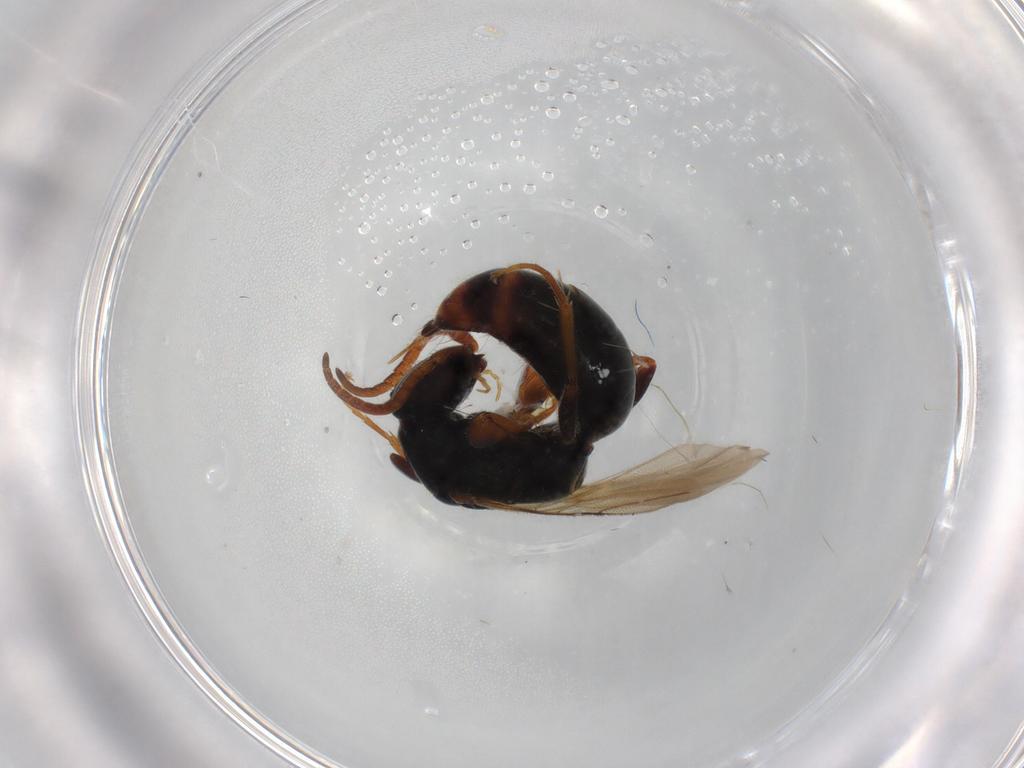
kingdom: Animalia
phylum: Arthropoda
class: Insecta
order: Hymenoptera
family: Bethylidae
